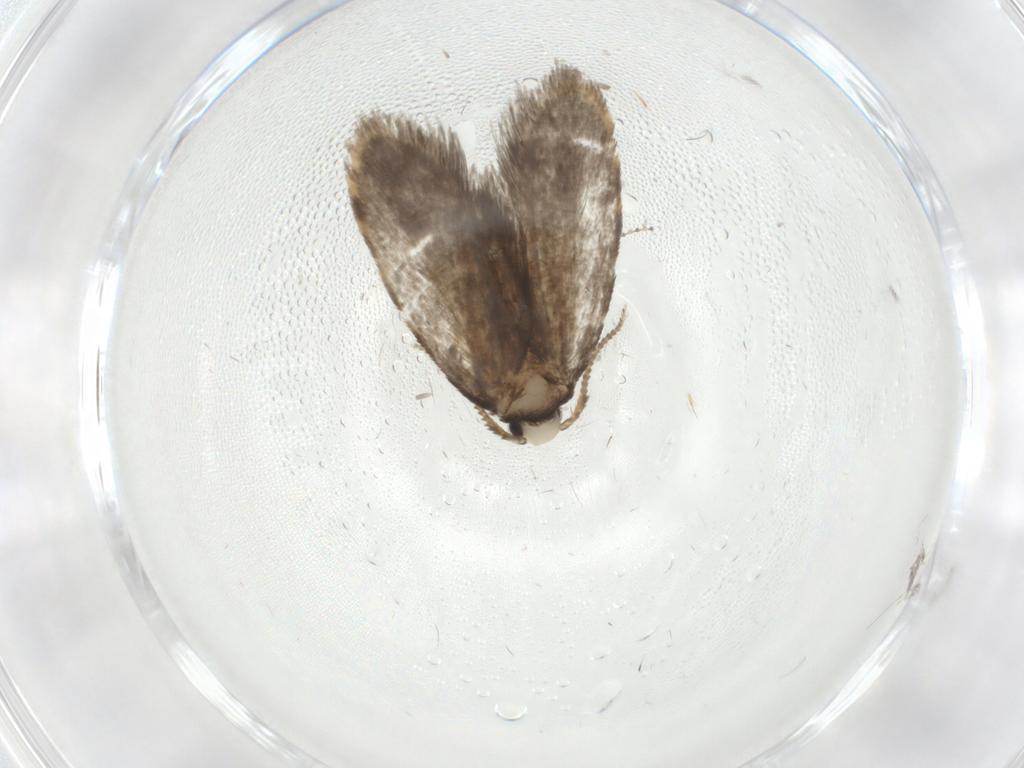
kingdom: Animalia
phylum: Arthropoda
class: Insecta
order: Lepidoptera
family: Psychidae
